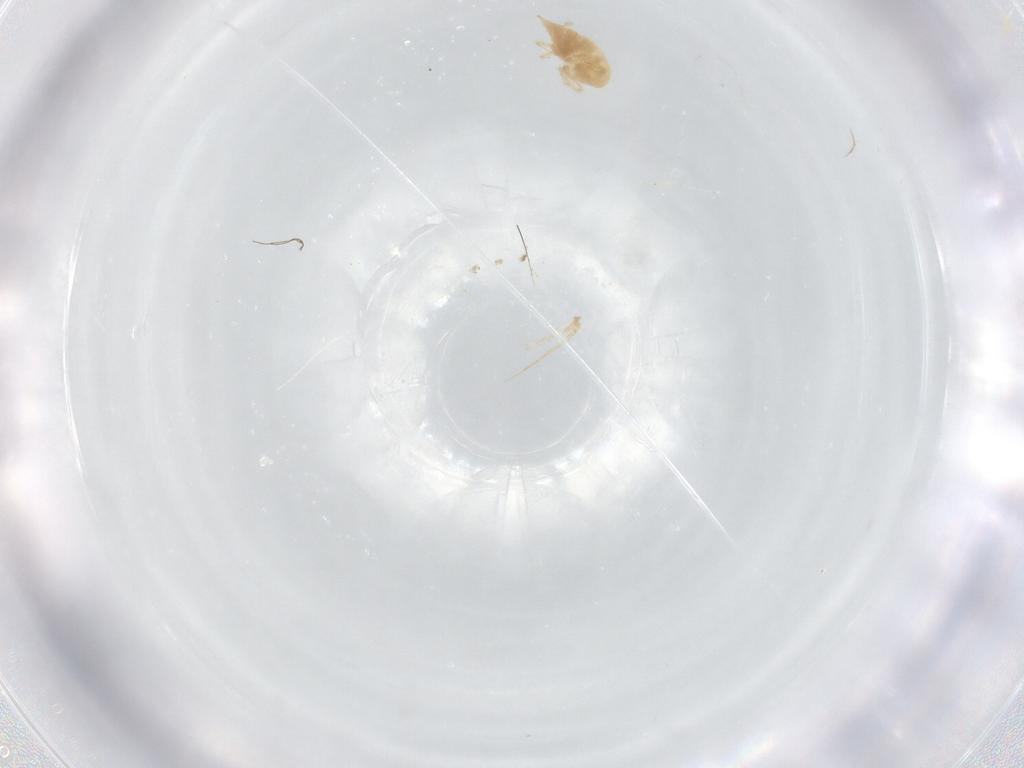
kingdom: Animalia
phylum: Arthropoda
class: Arachnida
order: Trombidiformes
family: Bdellidae
